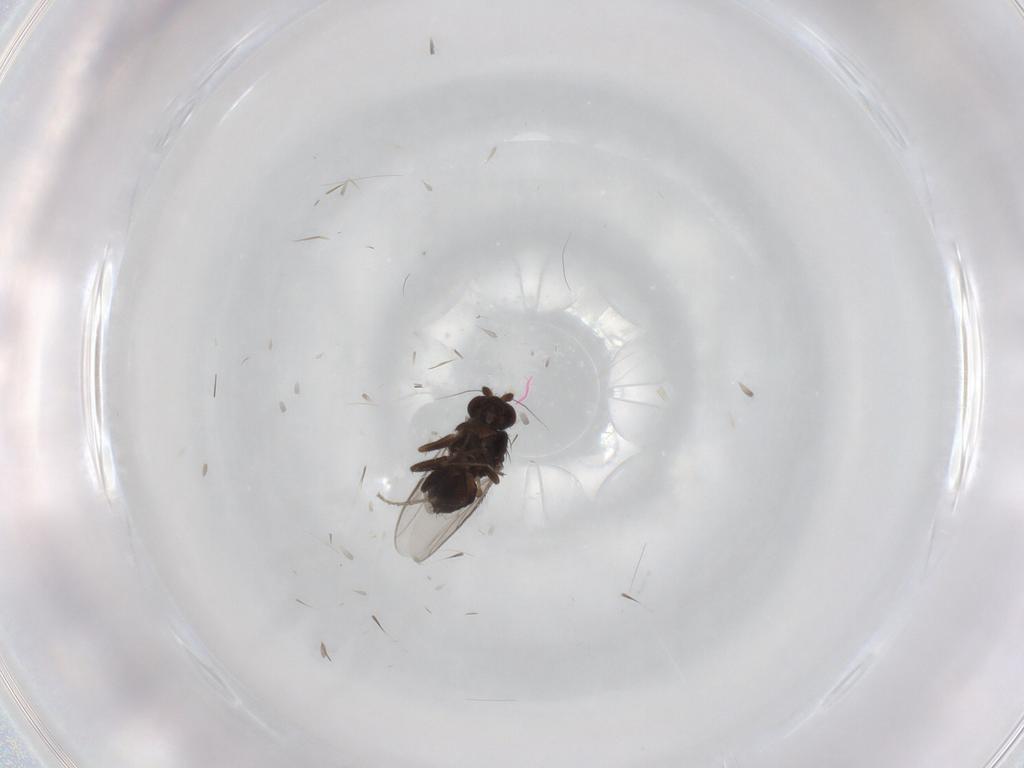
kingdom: Animalia
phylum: Arthropoda
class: Insecta
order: Diptera
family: Sphaeroceridae
